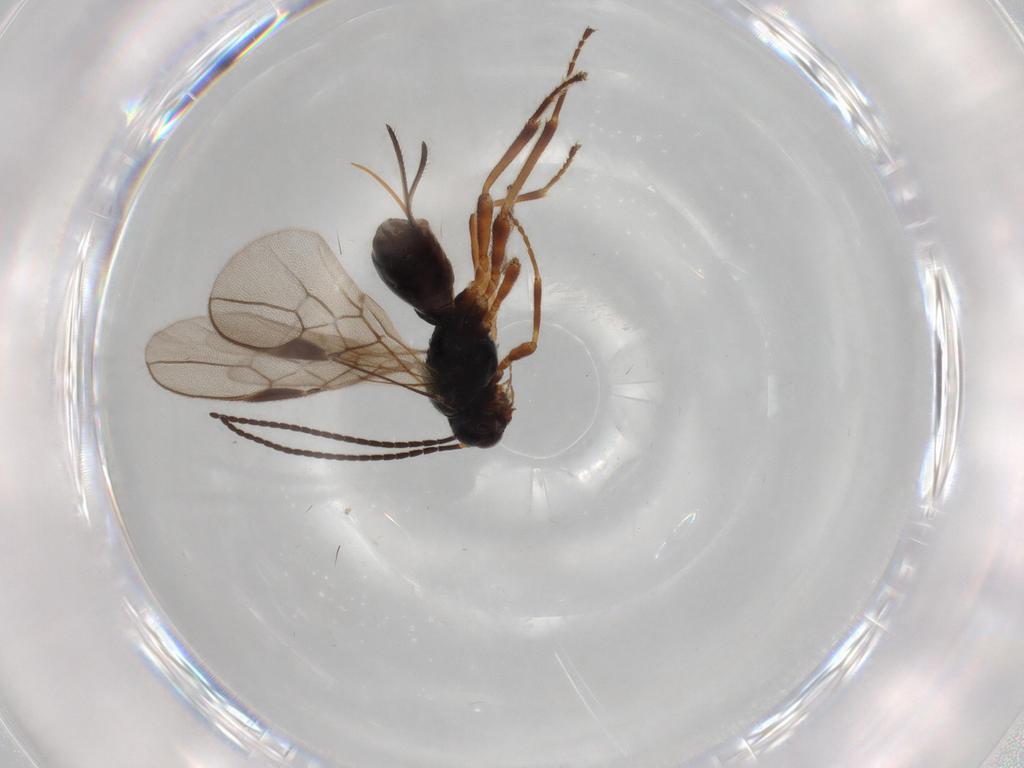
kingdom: Animalia
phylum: Arthropoda
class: Insecta
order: Hymenoptera
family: Braconidae
